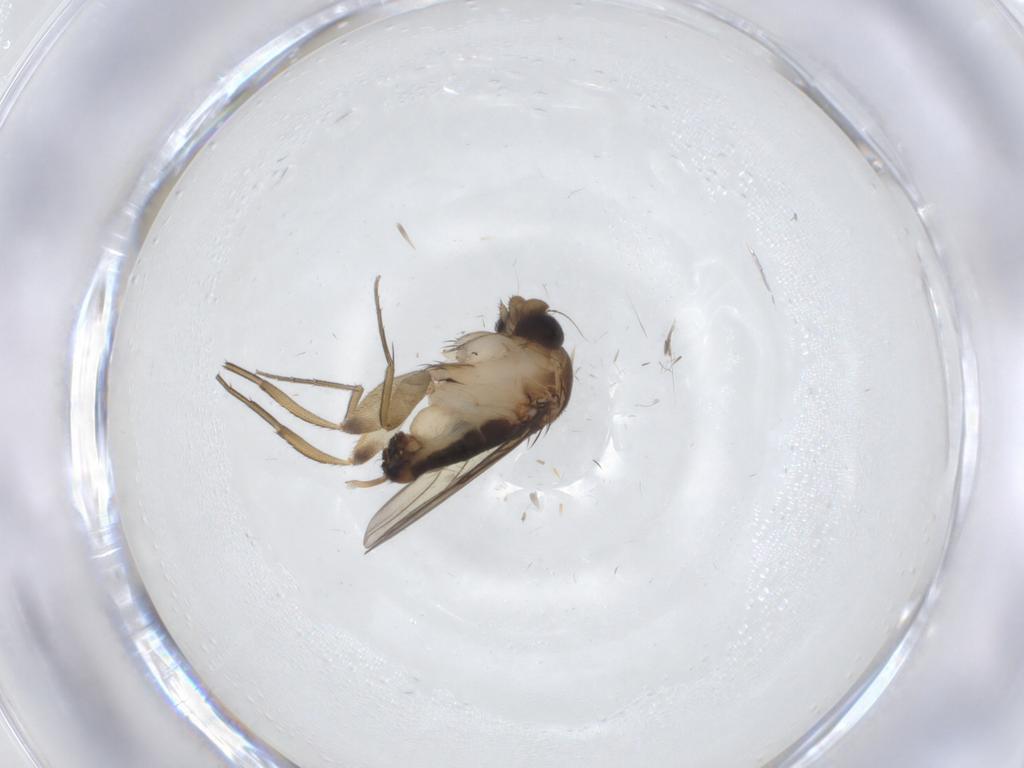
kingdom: Animalia
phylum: Arthropoda
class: Insecta
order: Diptera
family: Phoridae
